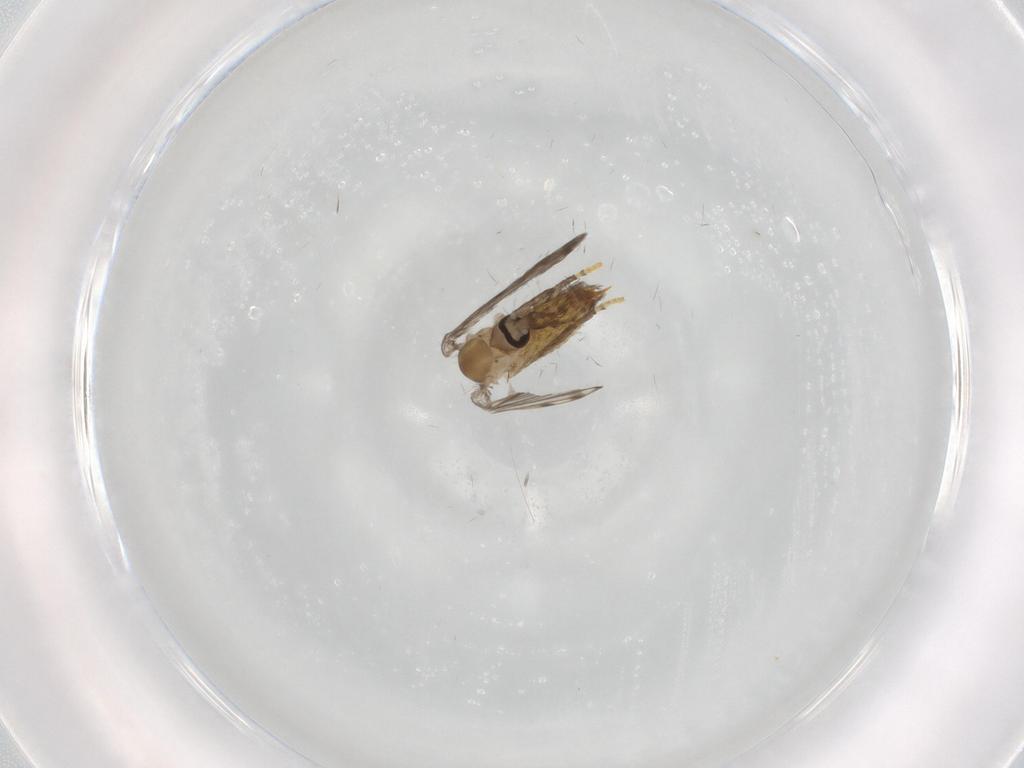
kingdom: Animalia
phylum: Arthropoda
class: Insecta
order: Diptera
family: Psychodidae
